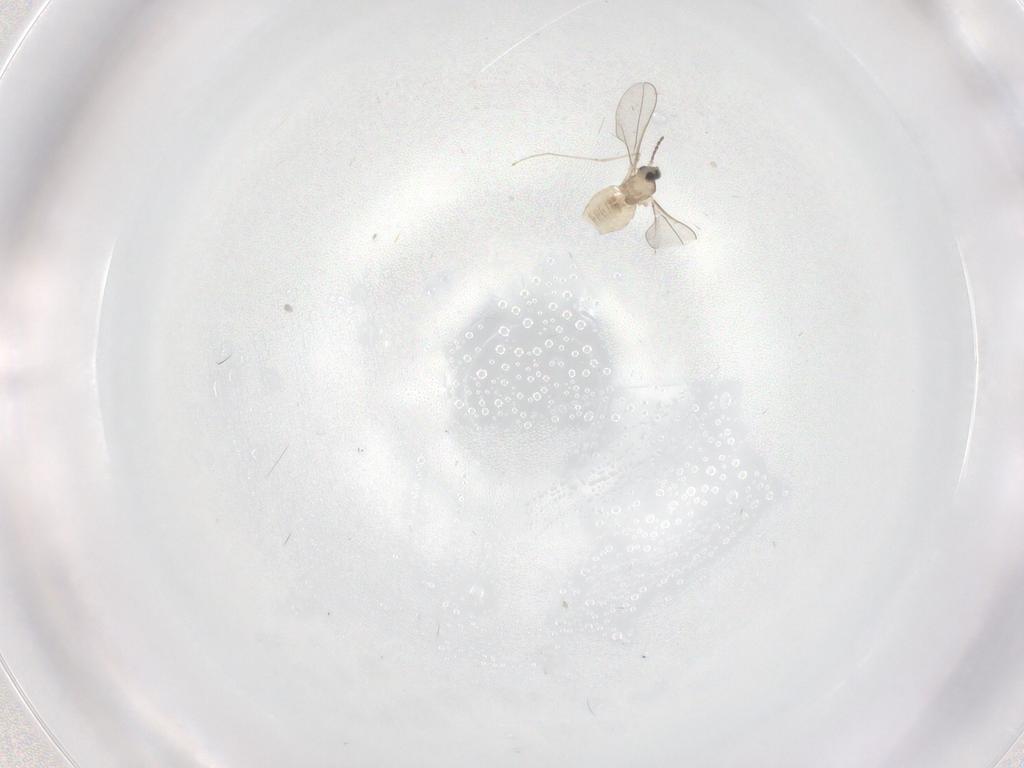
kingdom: Animalia
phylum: Arthropoda
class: Insecta
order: Diptera
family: Cecidomyiidae
